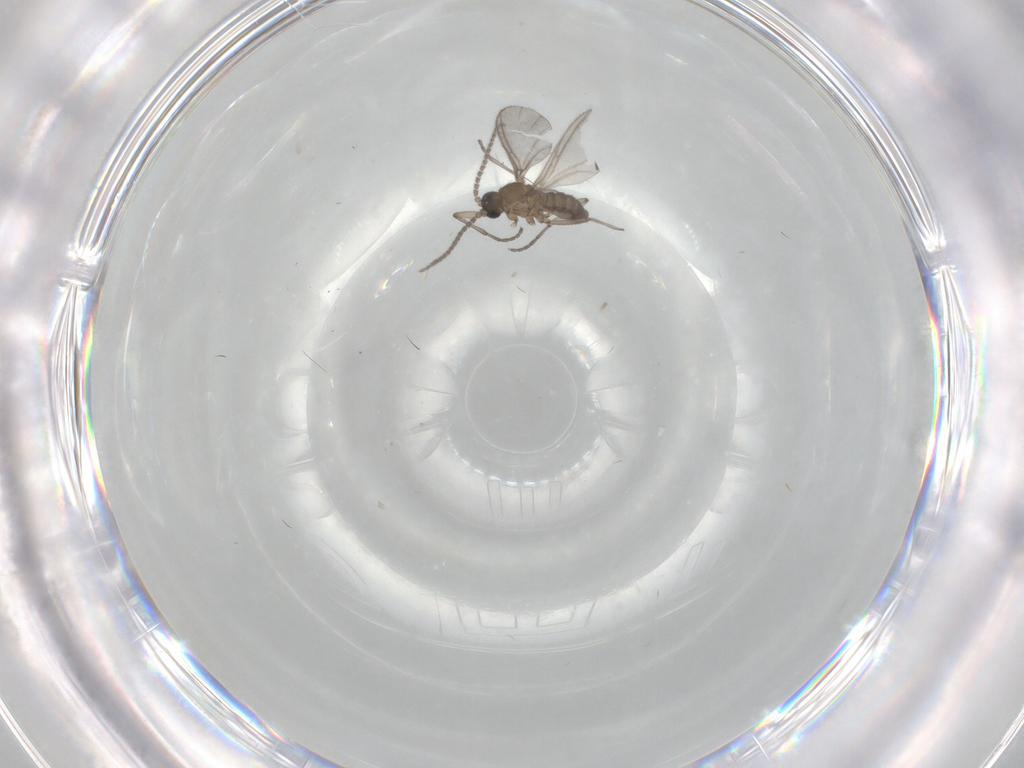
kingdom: Animalia
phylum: Arthropoda
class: Insecta
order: Diptera
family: Sciaridae
